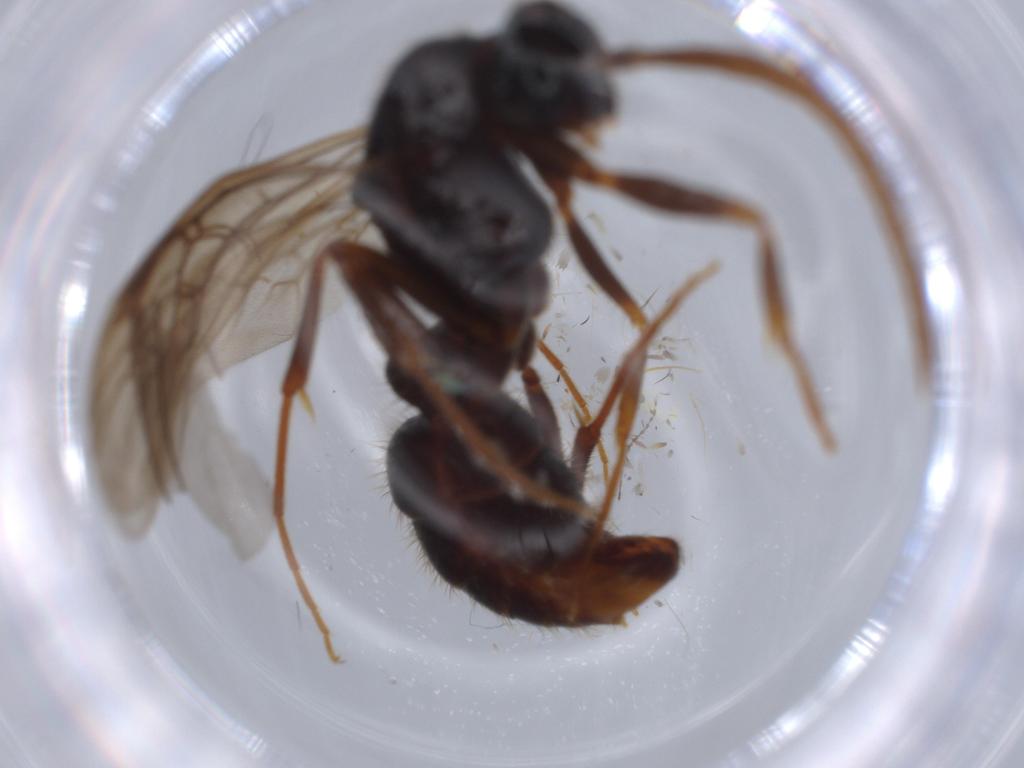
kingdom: Animalia
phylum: Arthropoda
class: Insecta
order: Hymenoptera
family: Formicidae
